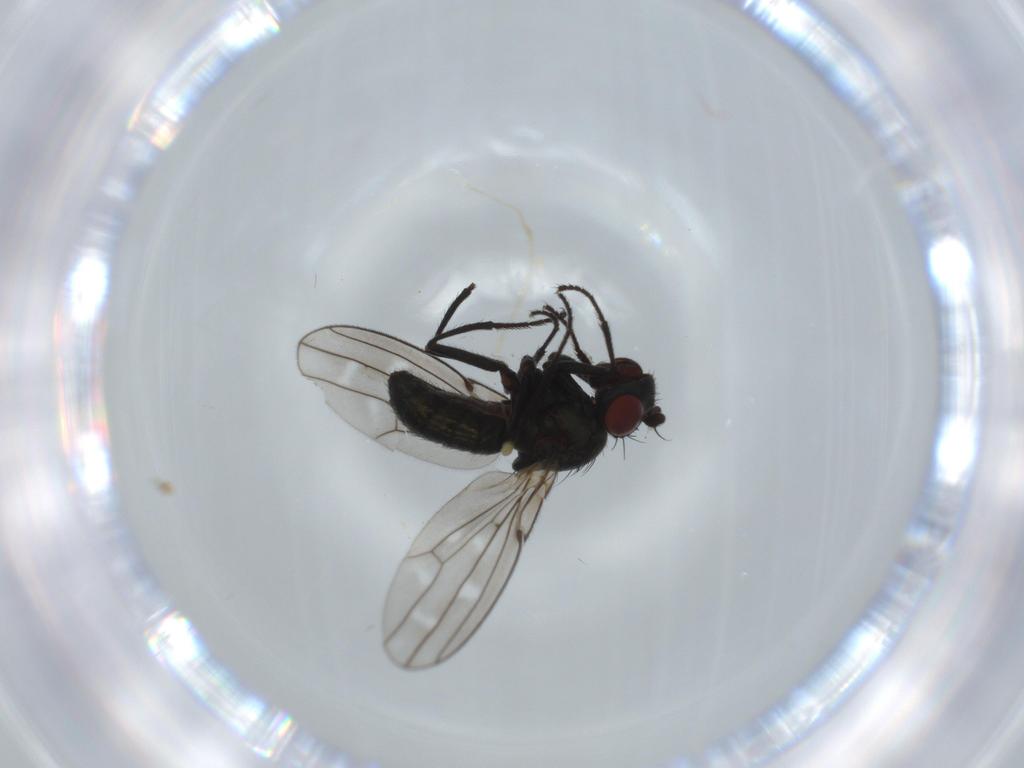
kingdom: Animalia
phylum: Arthropoda
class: Insecta
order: Diptera
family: Ephydridae
